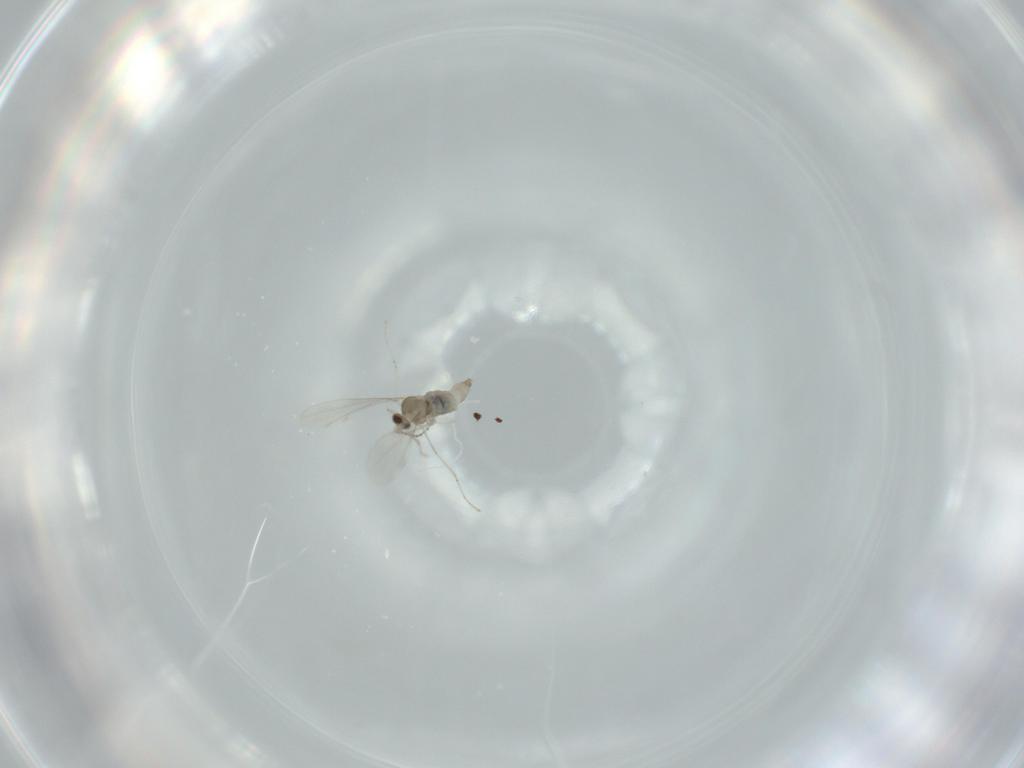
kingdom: Animalia
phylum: Arthropoda
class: Insecta
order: Diptera
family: Cecidomyiidae
